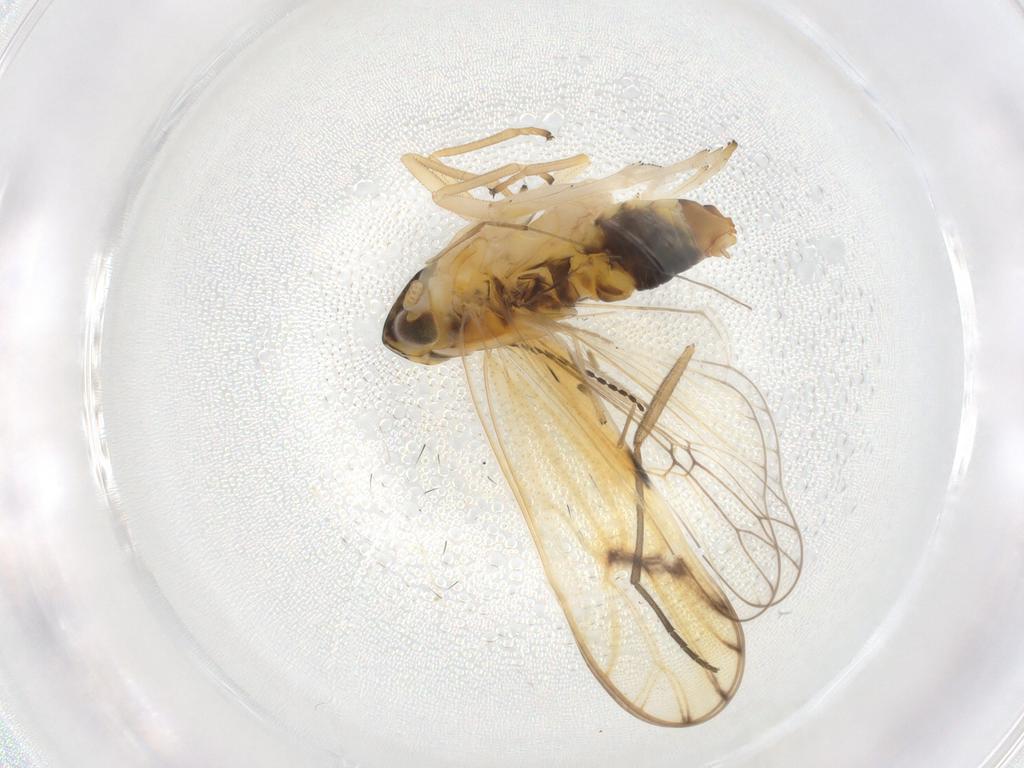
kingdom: Animalia
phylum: Arthropoda
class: Insecta
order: Hemiptera
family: Delphacidae
